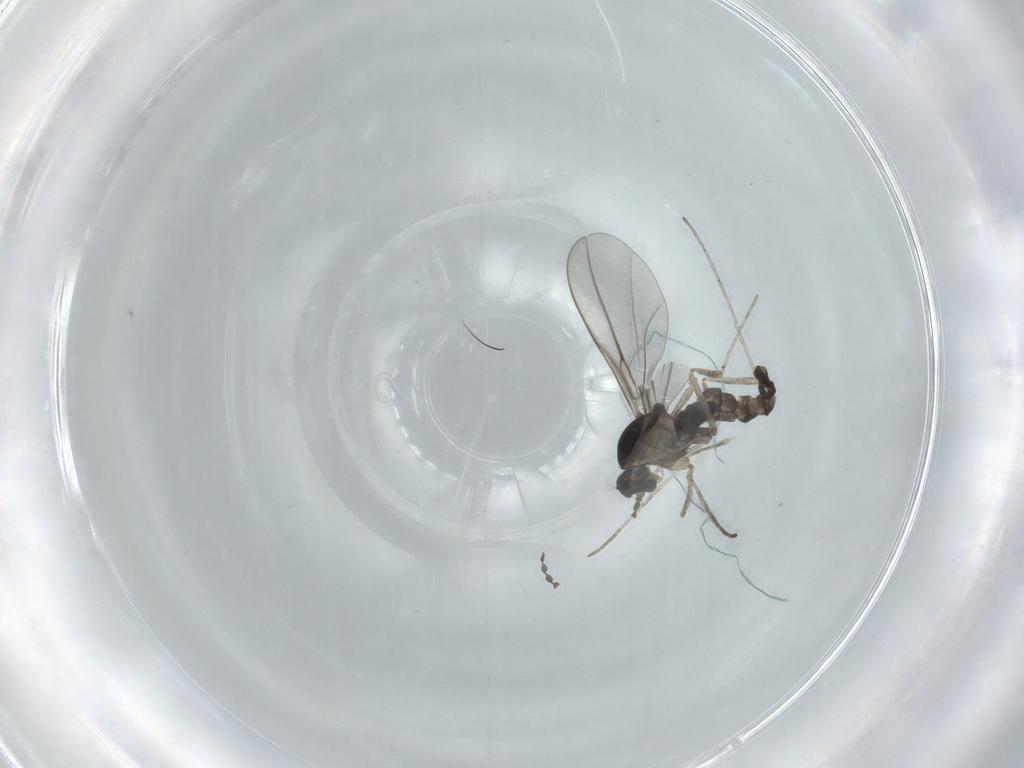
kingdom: Animalia
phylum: Arthropoda
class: Insecta
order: Diptera
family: Cecidomyiidae
